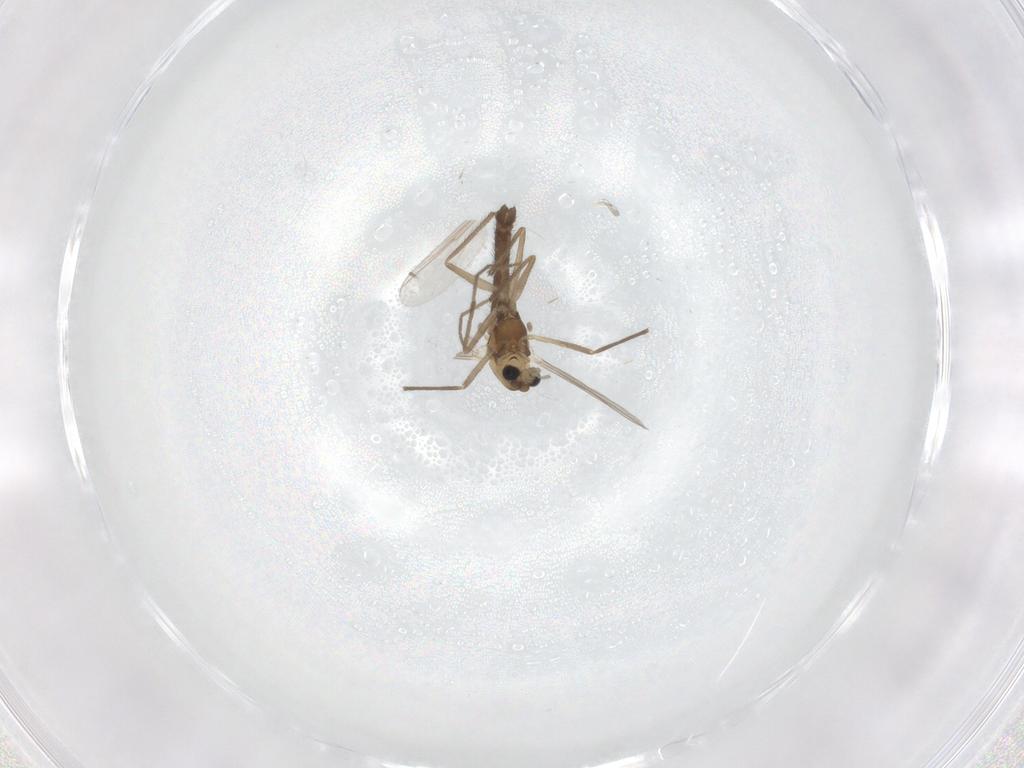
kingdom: Animalia
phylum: Arthropoda
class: Insecta
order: Diptera
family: Chironomidae
